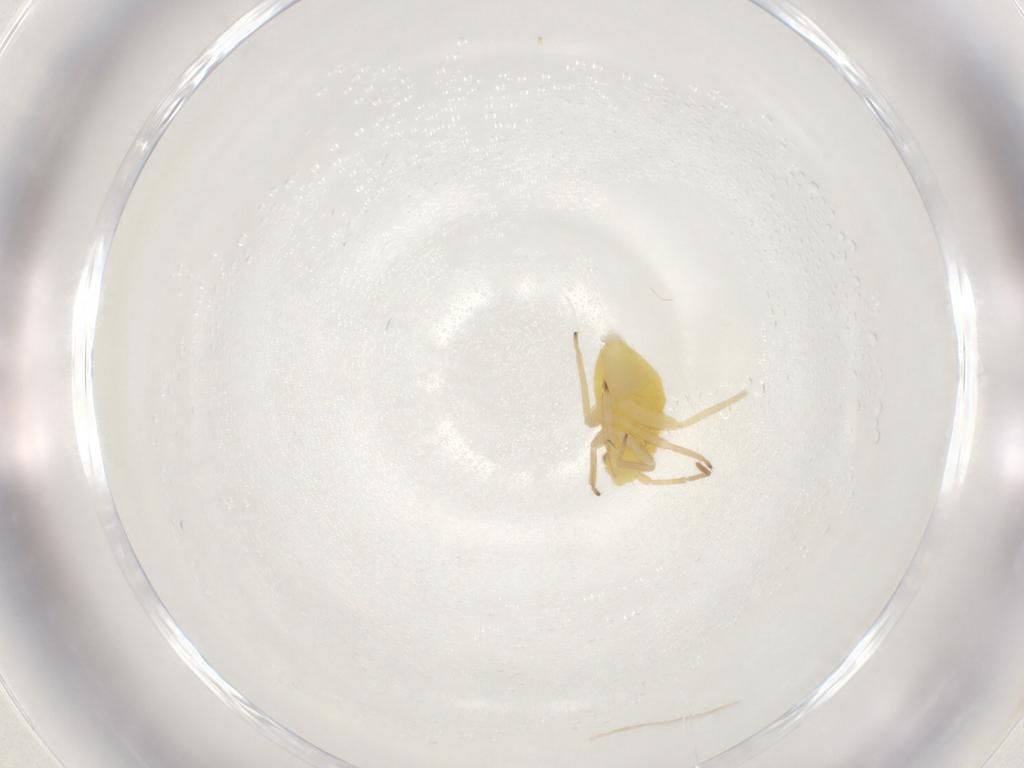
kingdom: Animalia
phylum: Arthropoda
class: Insecta
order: Hemiptera
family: Miridae
